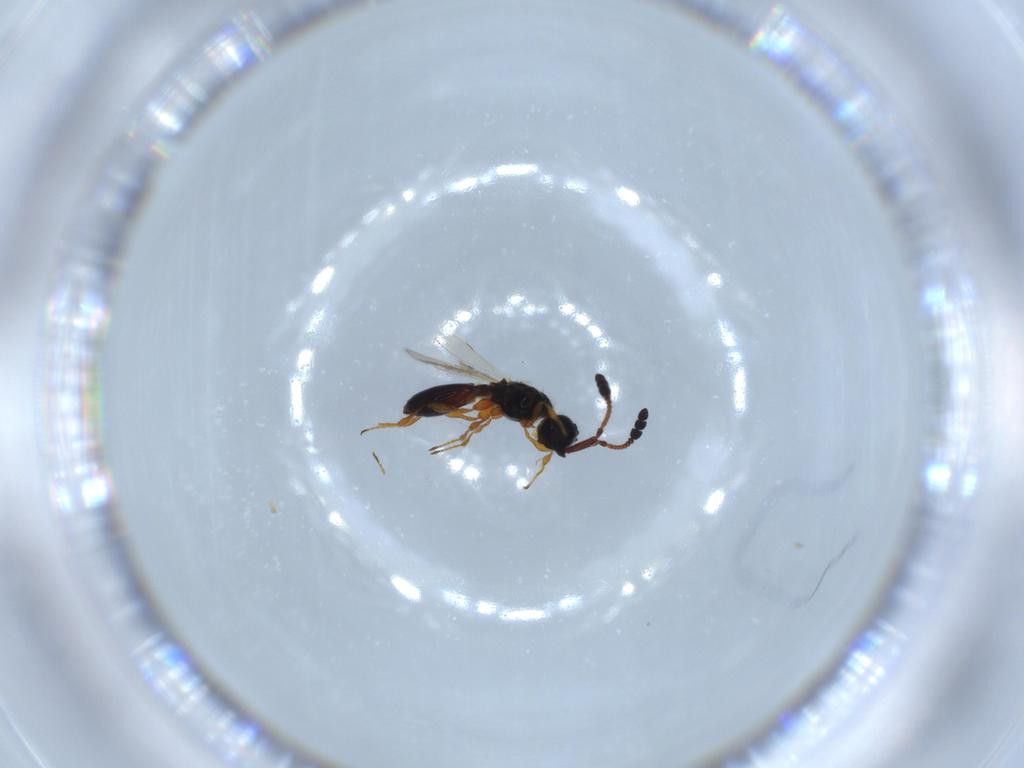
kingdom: Animalia
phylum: Arthropoda
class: Insecta
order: Hymenoptera
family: Diapriidae
